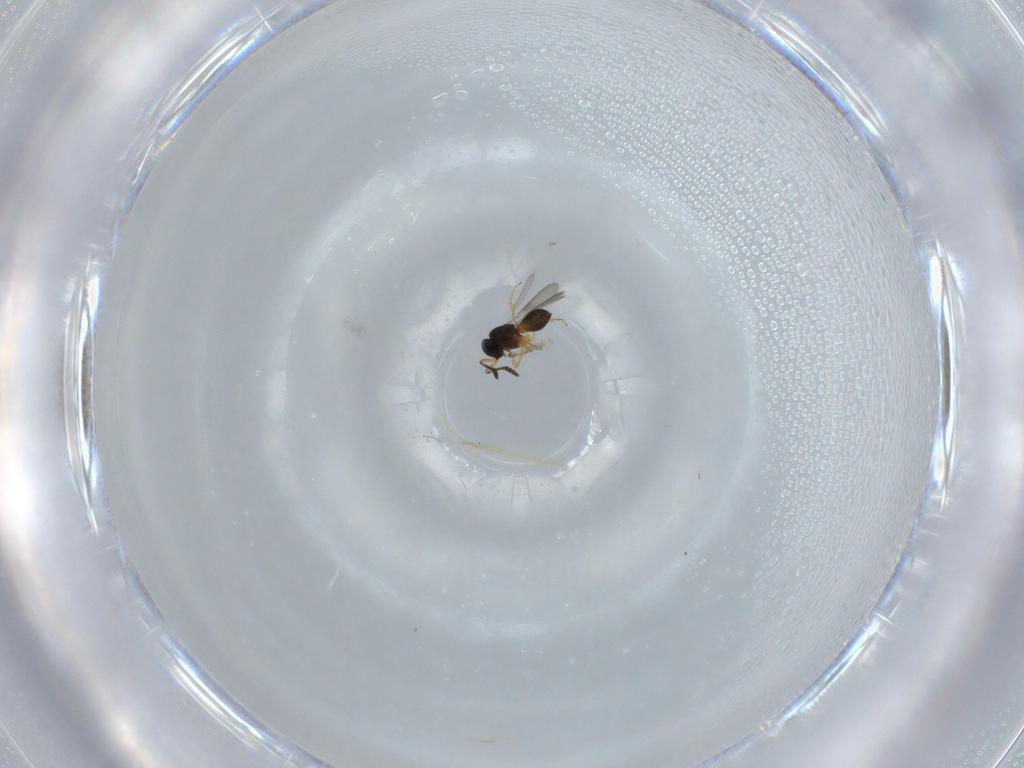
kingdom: Animalia
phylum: Arthropoda
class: Insecta
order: Hymenoptera
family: Scelionidae
